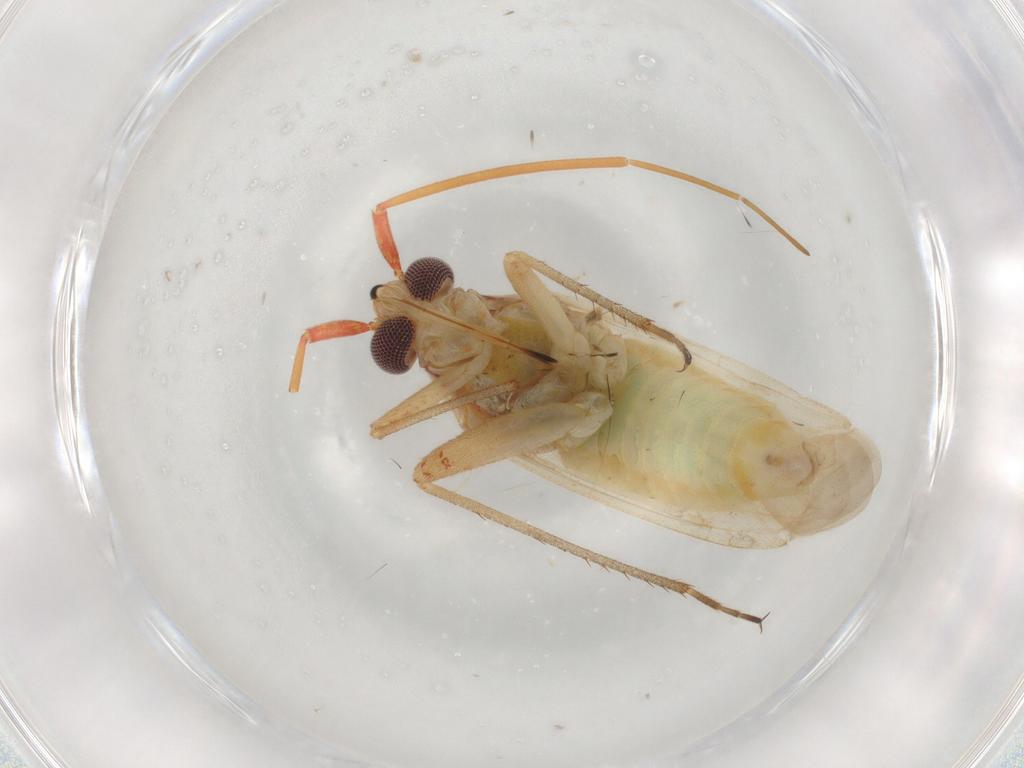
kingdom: Animalia
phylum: Arthropoda
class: Insecta
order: Hemiptera
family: Miridae
